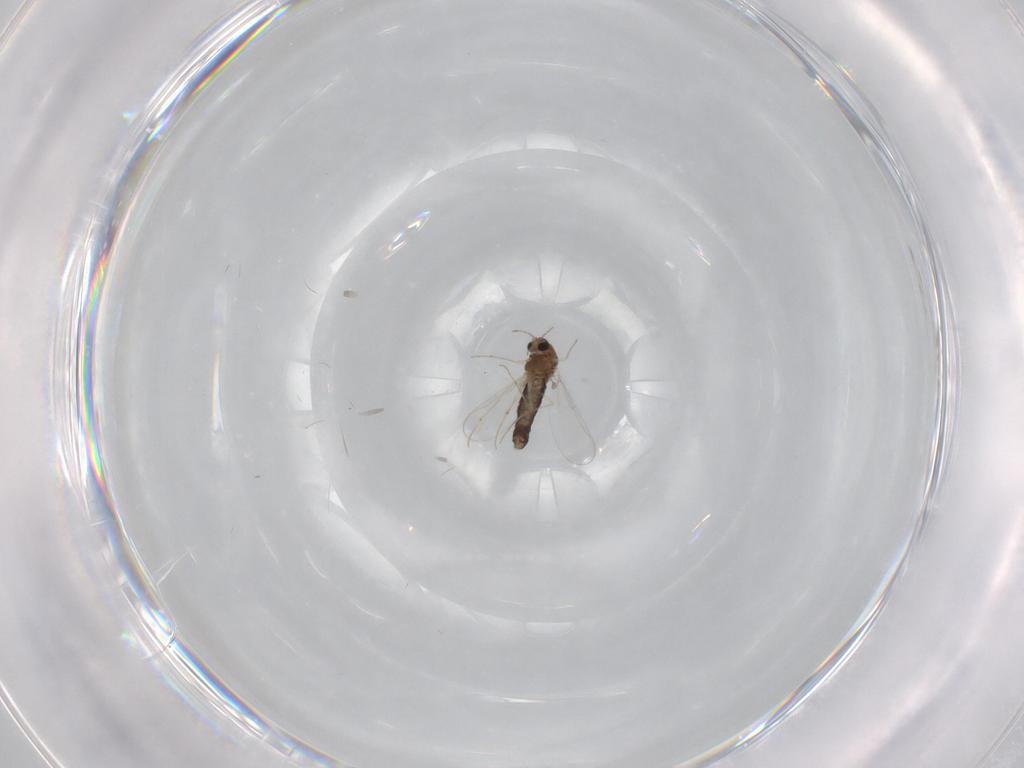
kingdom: Animalia
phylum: Arthropoda
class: Insecta
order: Diptera
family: Chironomidae
